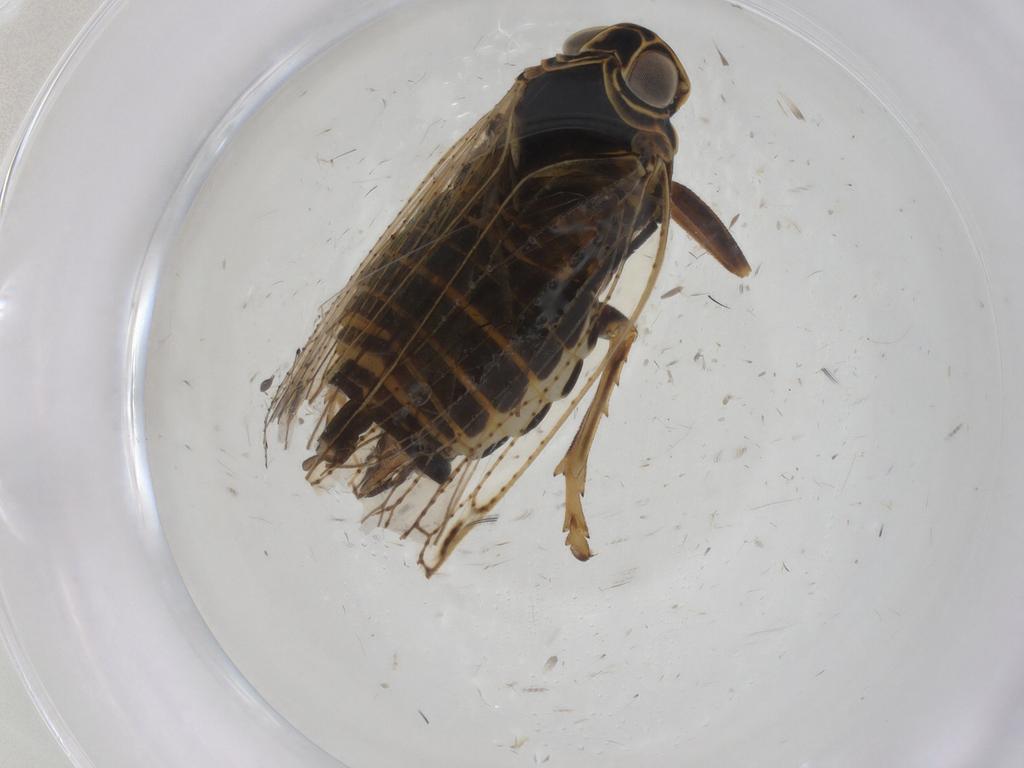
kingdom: Animalia
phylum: Arthropoda
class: Insecta
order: Hemiptera
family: Cixiidae
